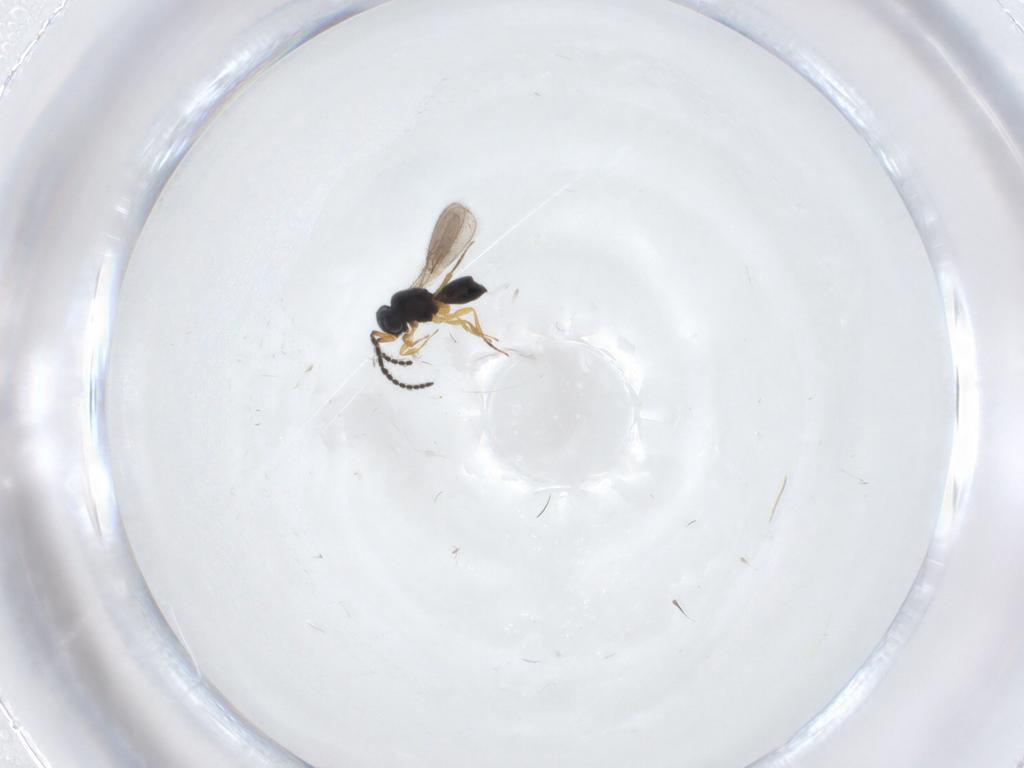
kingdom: Animalia
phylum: Arthropoda
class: Insecta
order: Hymenoptera
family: Scelionidae
